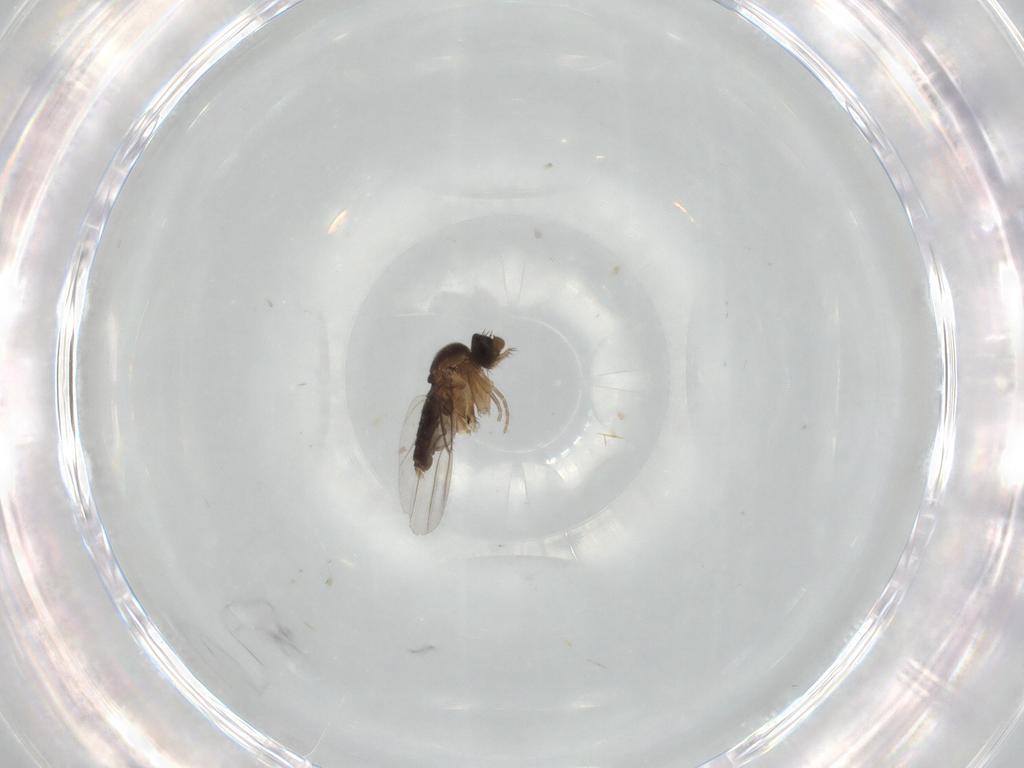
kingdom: Animalia
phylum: Arthropoda
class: Insecta
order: Diptera
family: Phoridae
